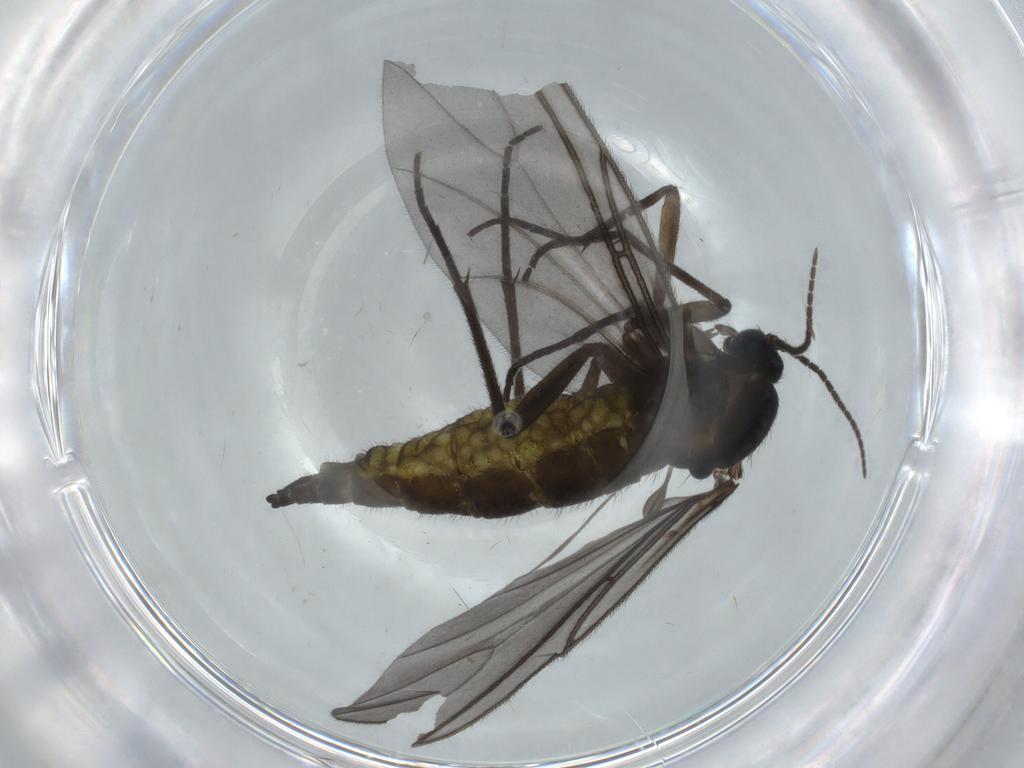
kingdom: Animalia
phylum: Arthropoda
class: Insecta
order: Diptera
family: Sciaridae
